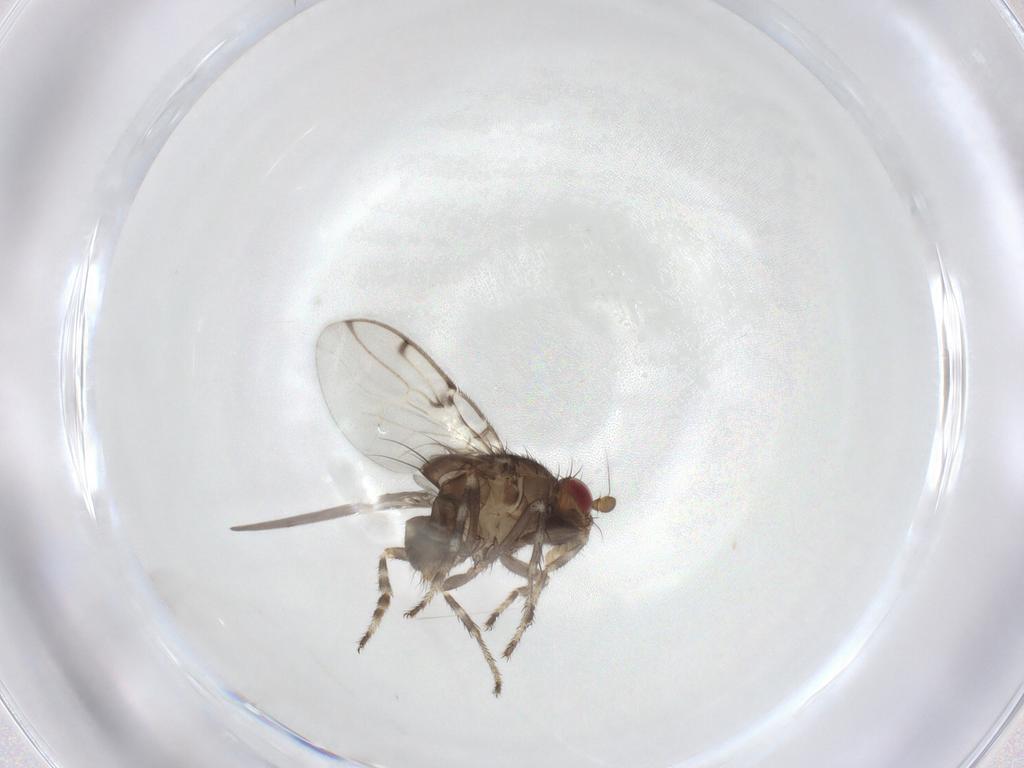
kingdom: Animalia
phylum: Arthropoda
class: Insecta
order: Diptera
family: Sphaeroceridae
